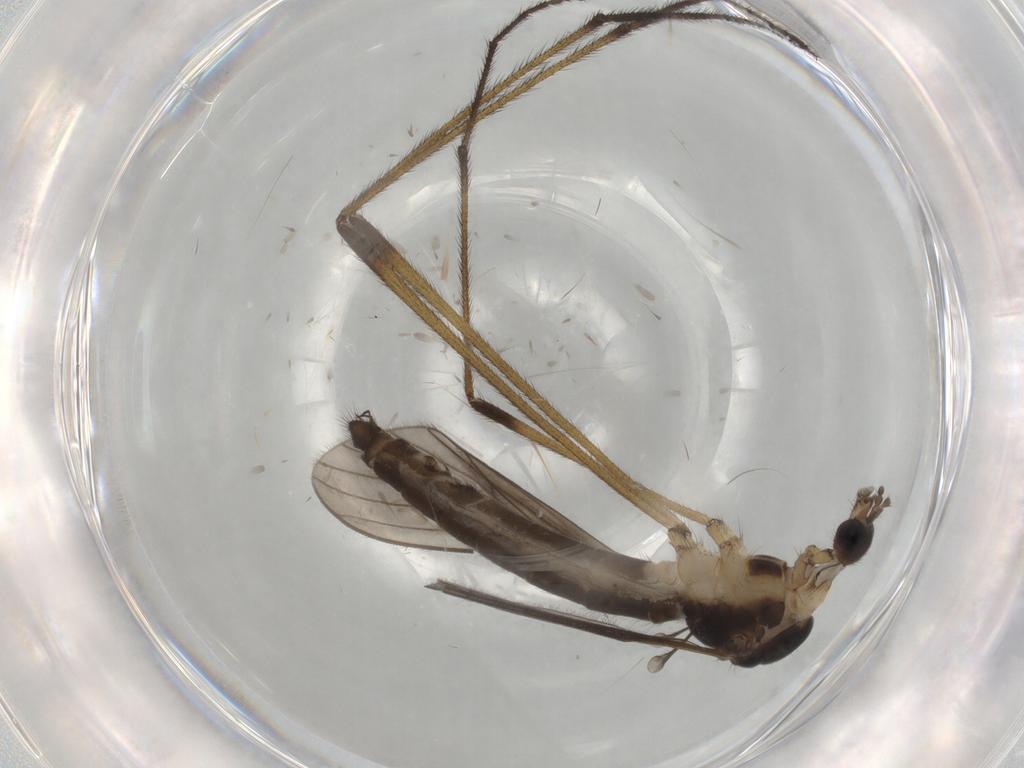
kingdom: Animalia
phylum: Arthropoda
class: Insecta
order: Diptera
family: Limoniidae
